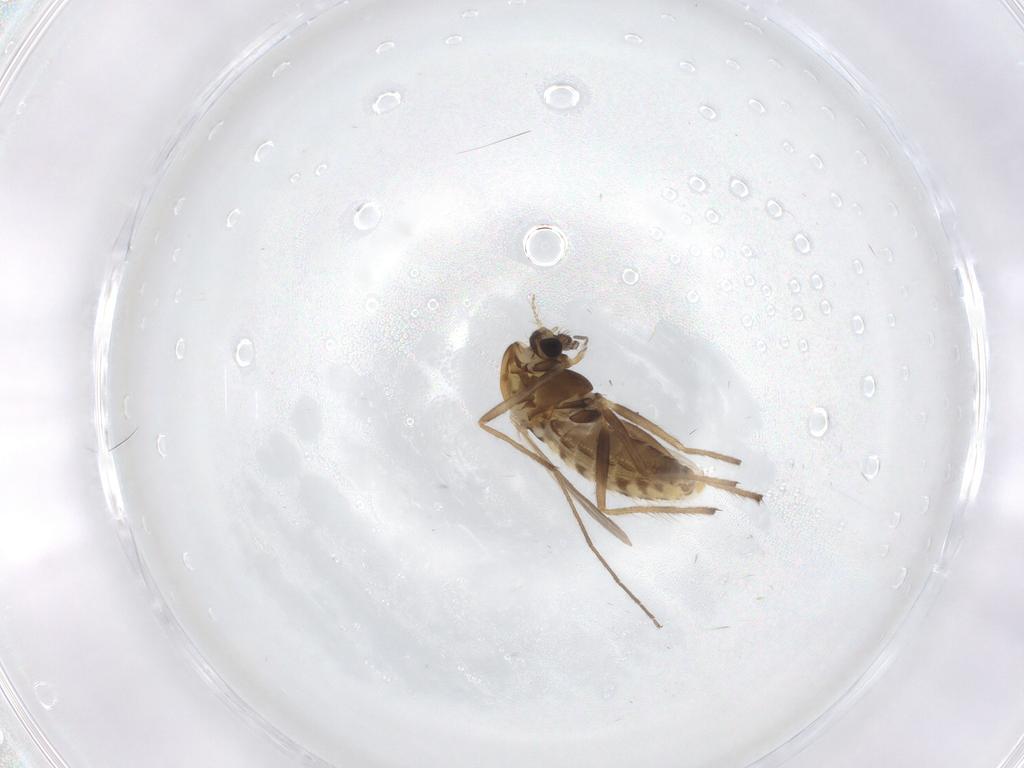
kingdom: Animalia
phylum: Arthropoda
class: Insecta
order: Diptera
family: Chironomidae
